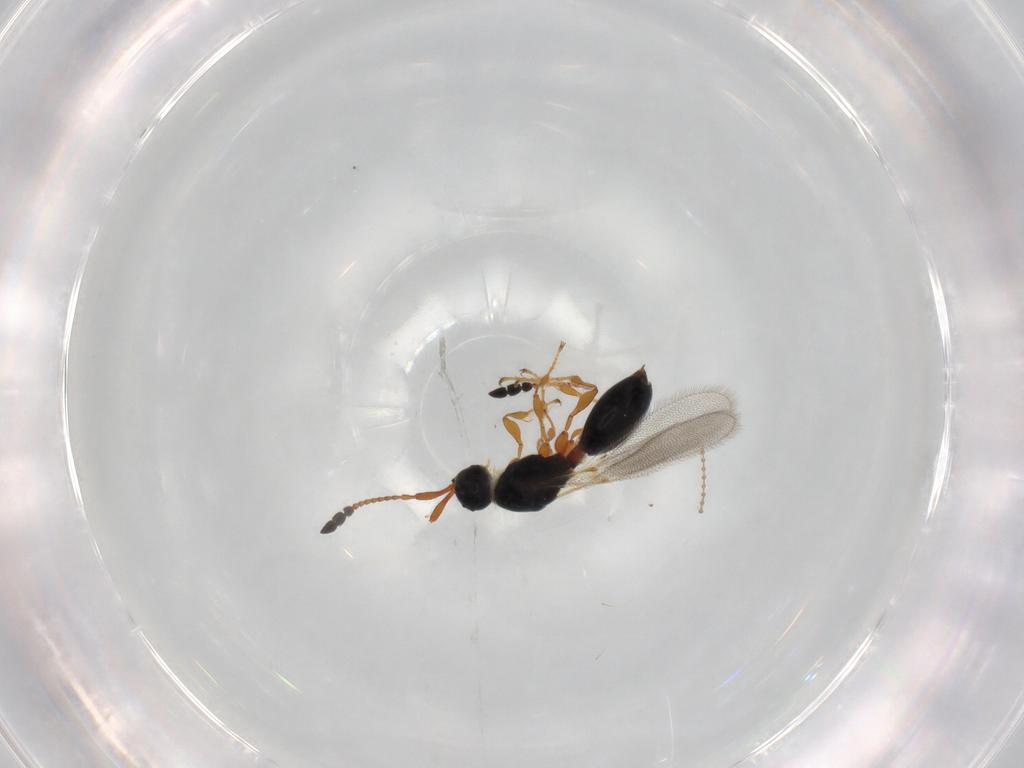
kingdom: Animalia
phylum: Arthropoda
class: Insecta
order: Hymenoptera
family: Diapriidae
